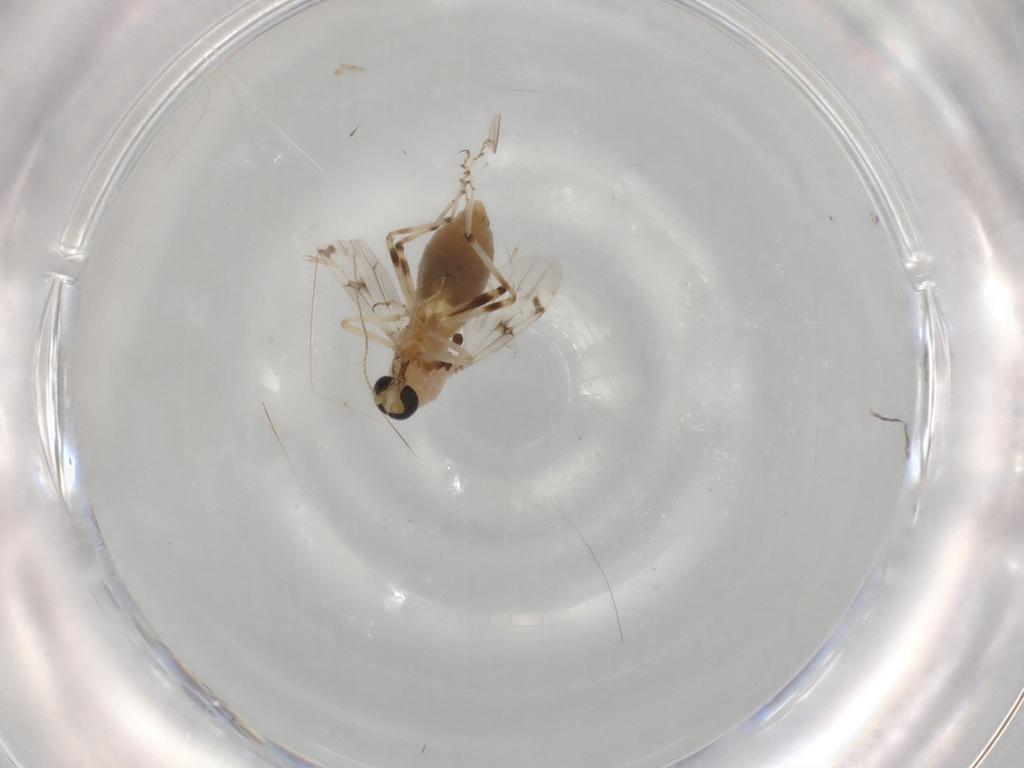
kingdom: Animalia
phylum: Arthropoda
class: Insecta
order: Diptera
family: Ceratopogonidae
